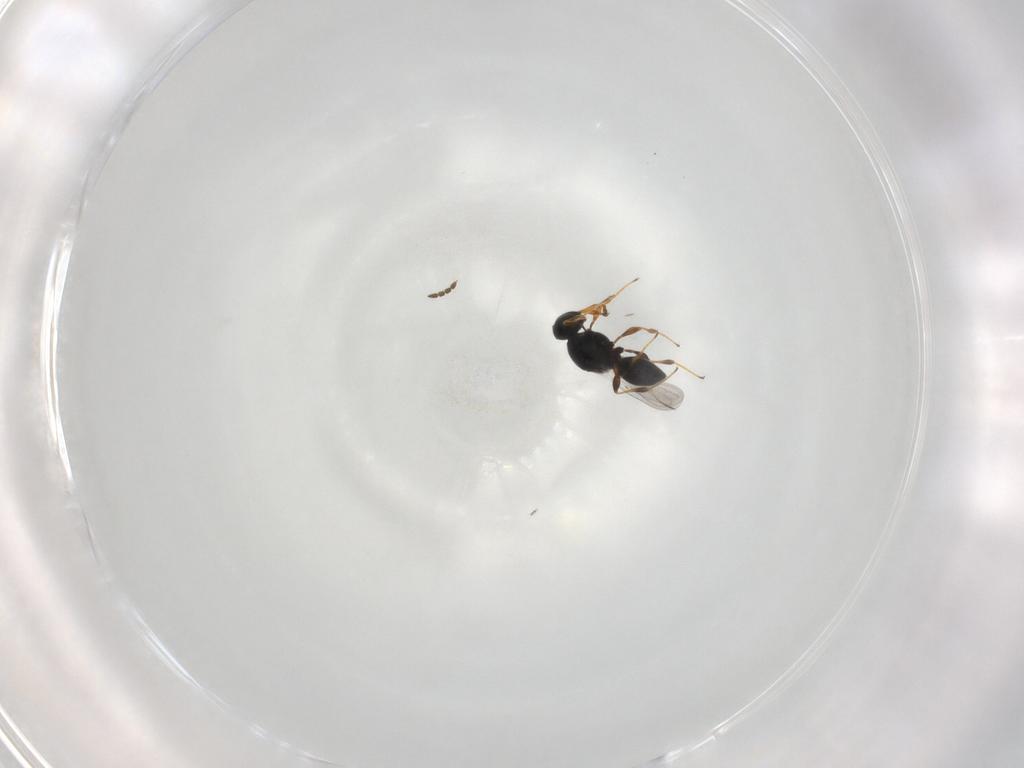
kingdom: Animalia
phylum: Arthropoda
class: Insecta
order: Hymenoptera
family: Platygastridae
